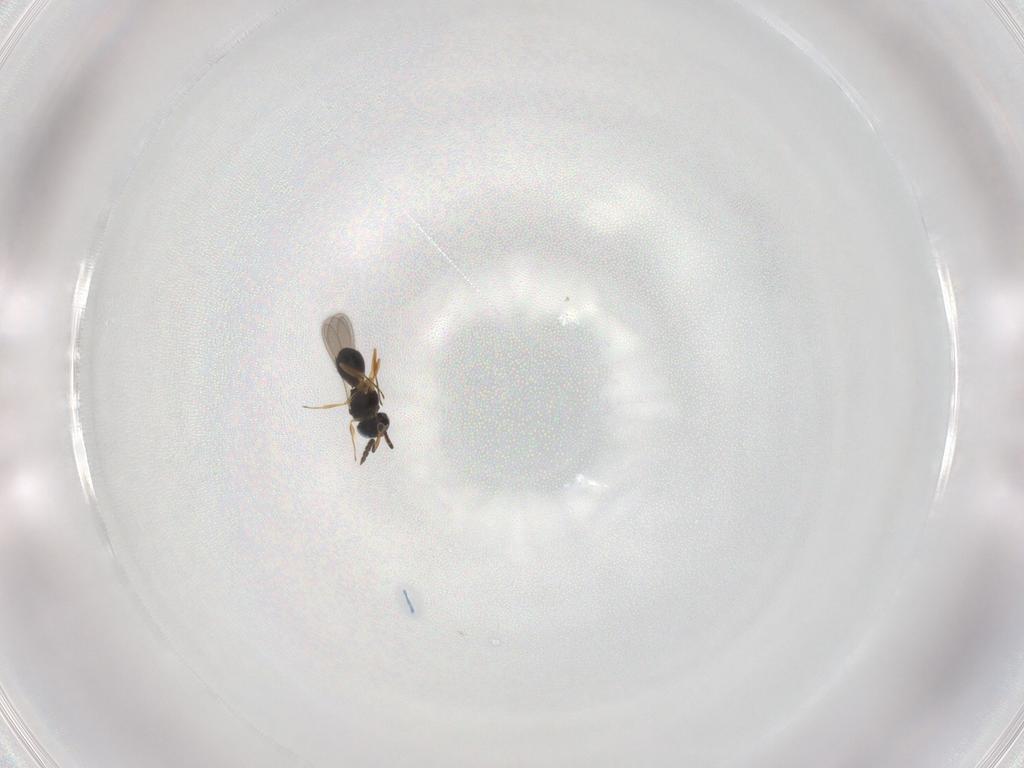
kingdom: Animalia
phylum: Arthropoda
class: Insecta
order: Hymenoptera
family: Scelionidae
